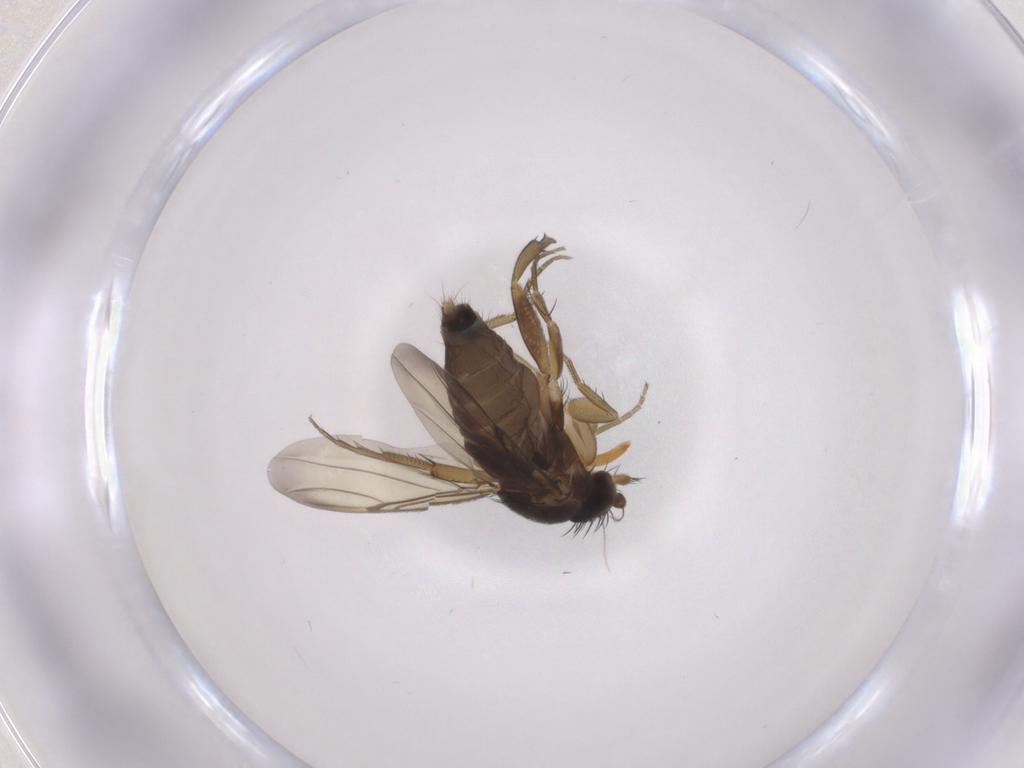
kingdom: Animalia
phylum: Arthropoda
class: Insecta
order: Diptera
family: Phoridae
